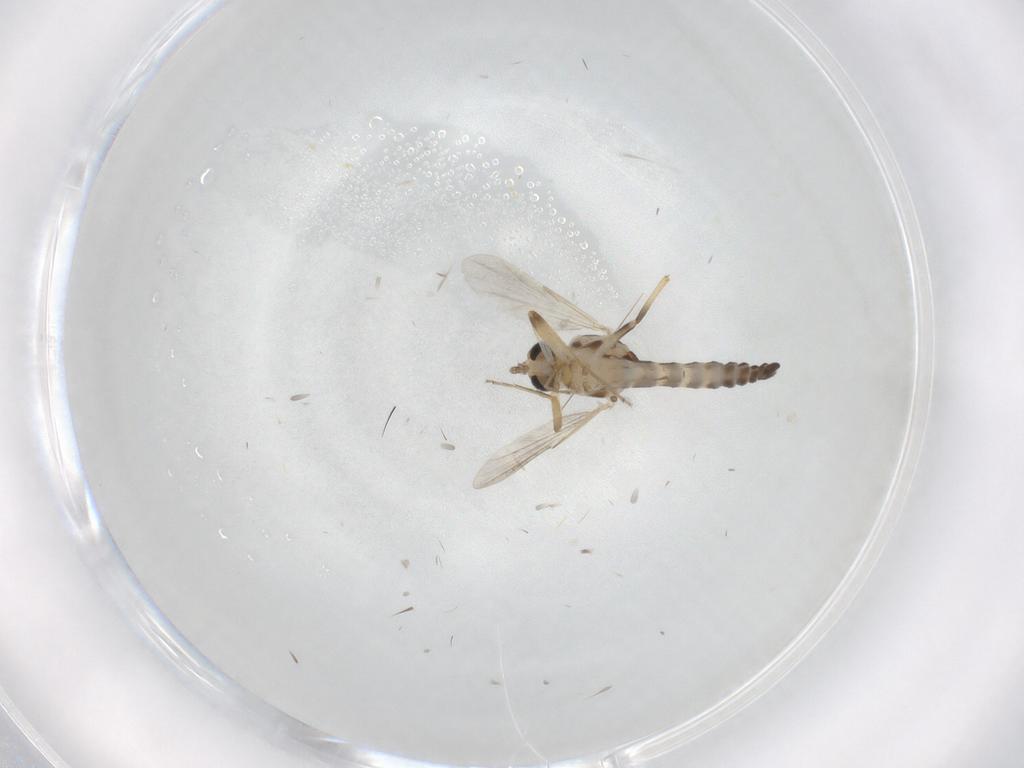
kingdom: Animalia
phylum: Arthropoda
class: Insecta
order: Diptera
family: Ceratopogonidae
